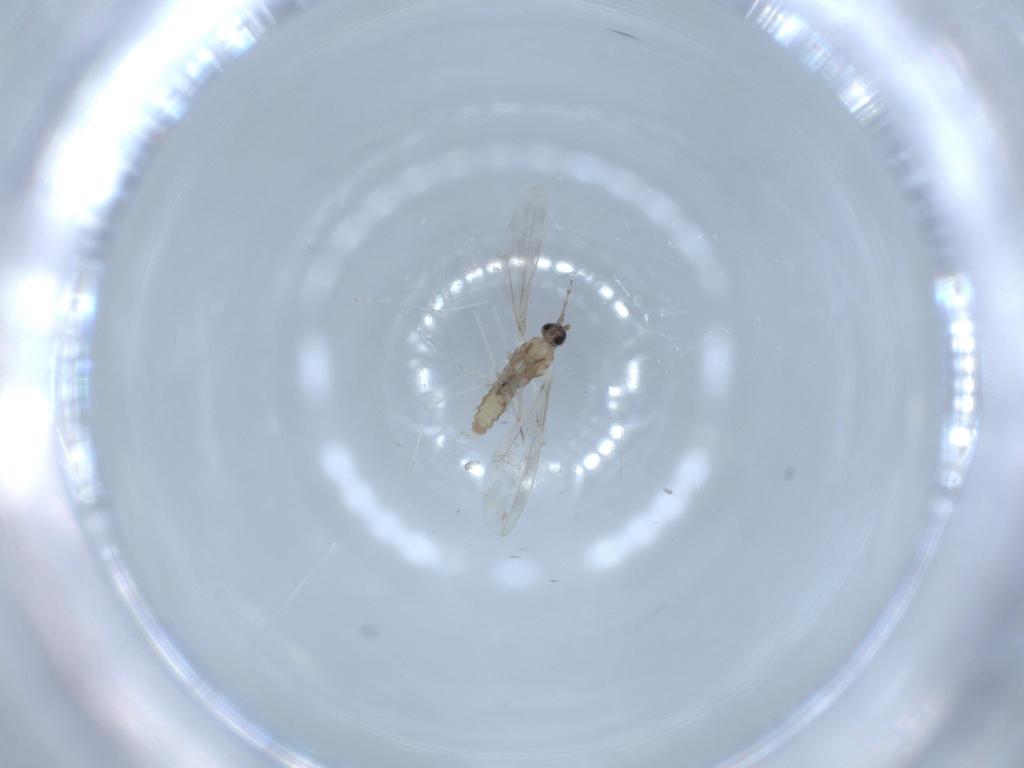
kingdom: Animalia
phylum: Arthropoda
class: Insecta
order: Diptera
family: Cecidomyiidae
